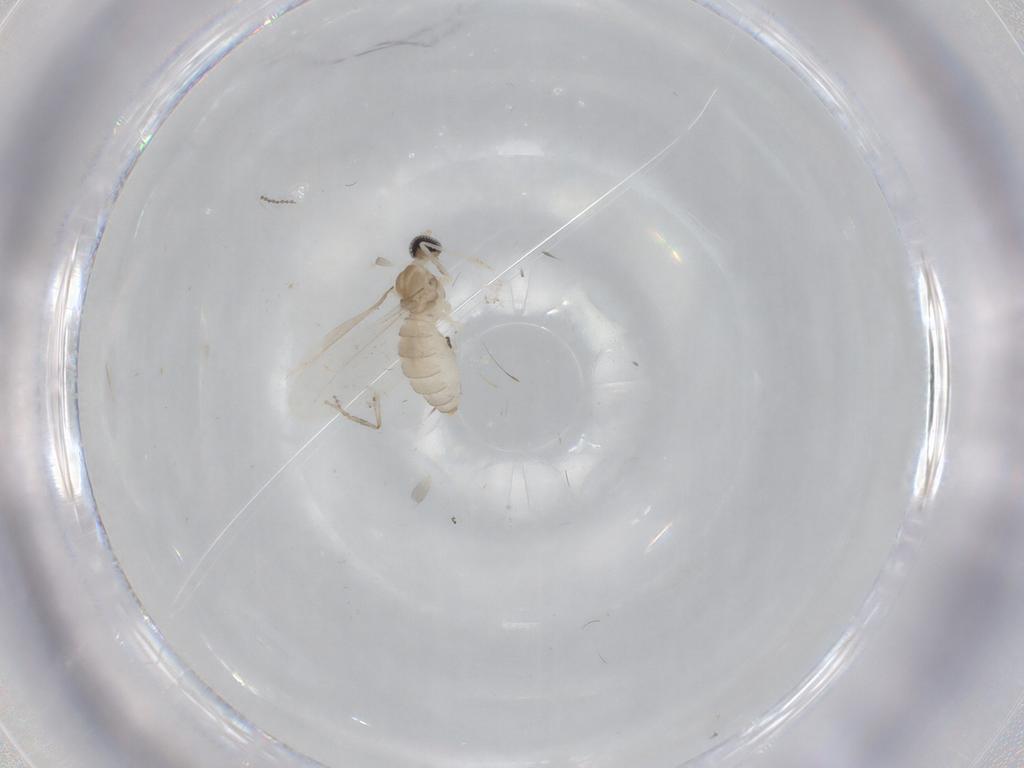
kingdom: Animalia
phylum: Arthropoda
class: Insecta
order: Diptera
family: Cecidomyiidae
